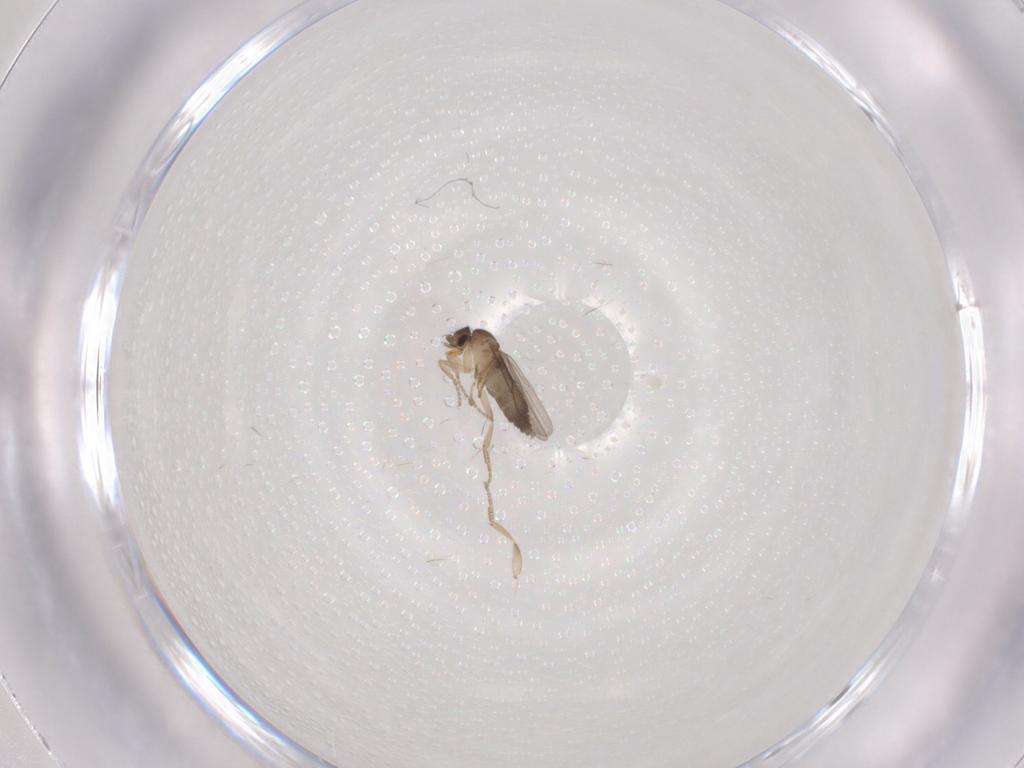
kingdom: Animalia
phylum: Arthropoda
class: Insecta
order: Diptera
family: Phoridae
